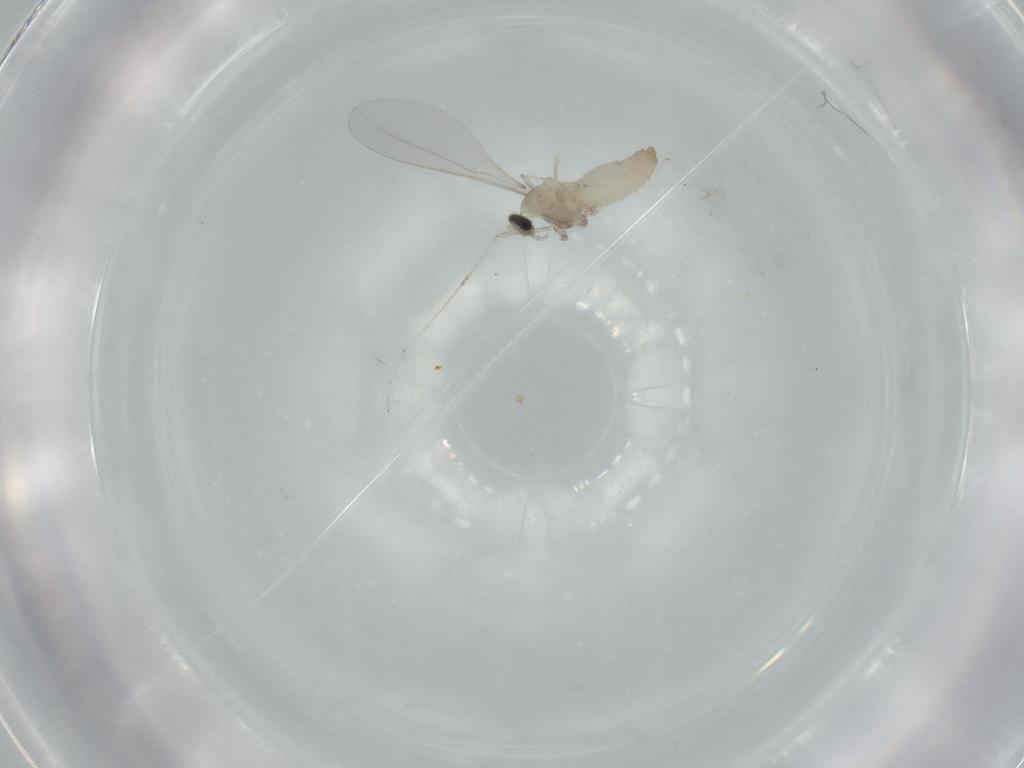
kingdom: Animalia
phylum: Arthropoda
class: Insecta
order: Diptera
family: Cecidomyiidae
